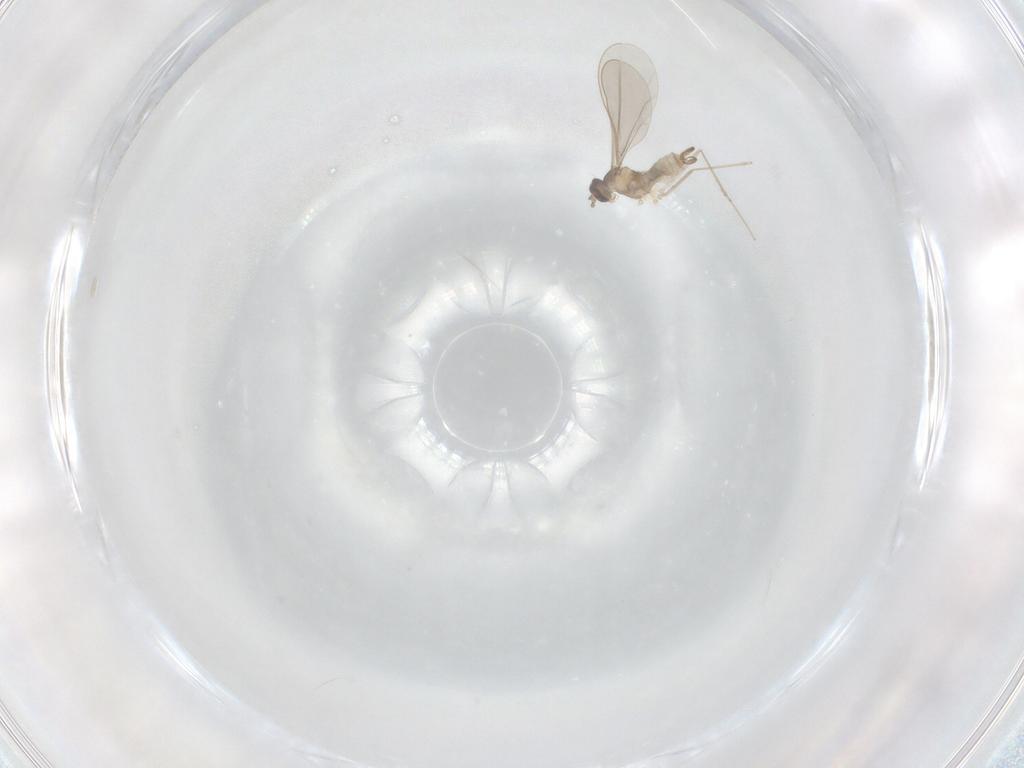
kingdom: Animalia
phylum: Arthropoda
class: Insecta
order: Diptera
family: Cecidomyiidae
